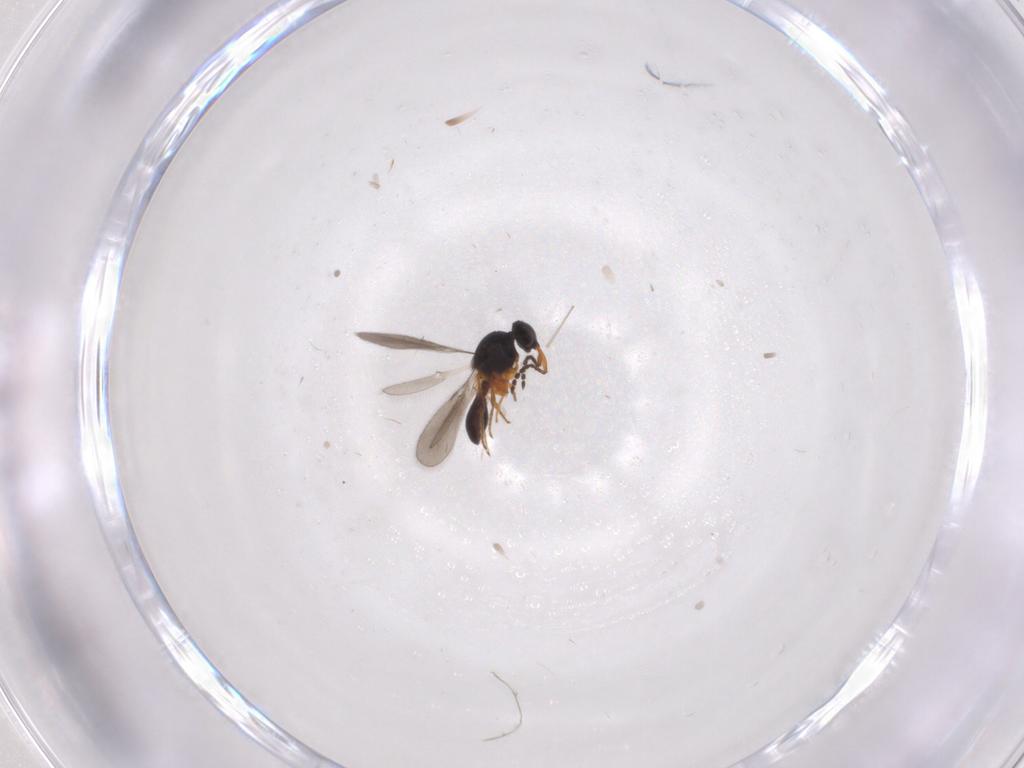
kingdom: Animalia
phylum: Arthropoda
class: Insecta
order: Hymenoptera
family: Platygastridae
